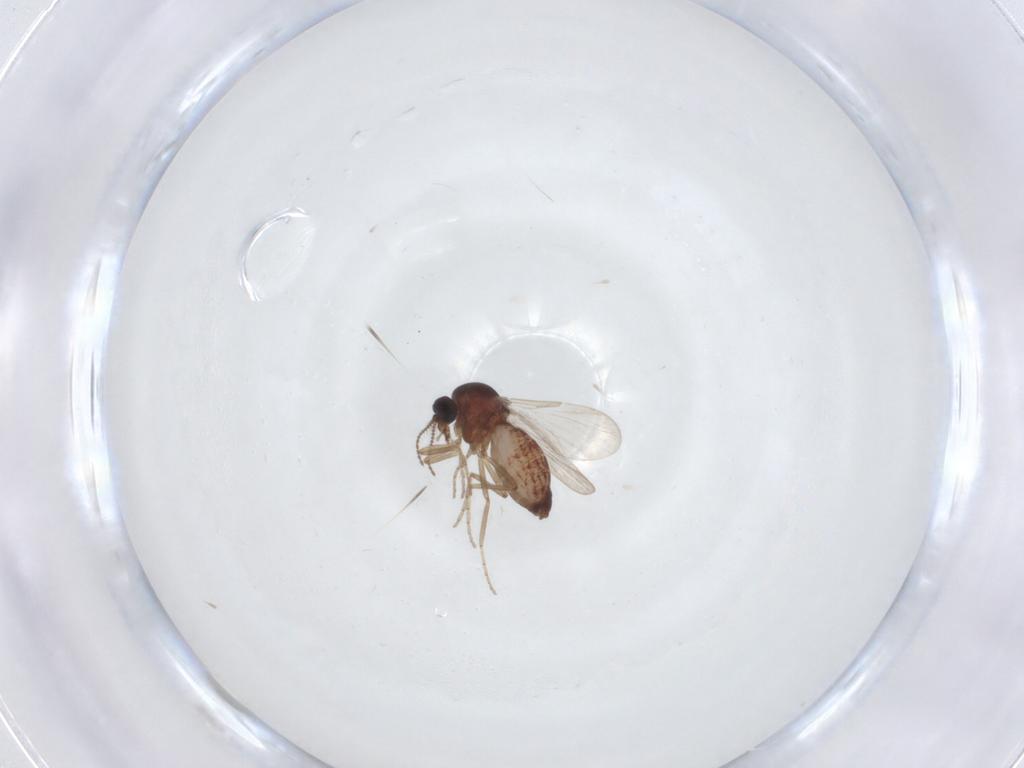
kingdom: Animalia
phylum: Arthropoda
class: Insecta
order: Diptera
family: Ceratopogonidae
